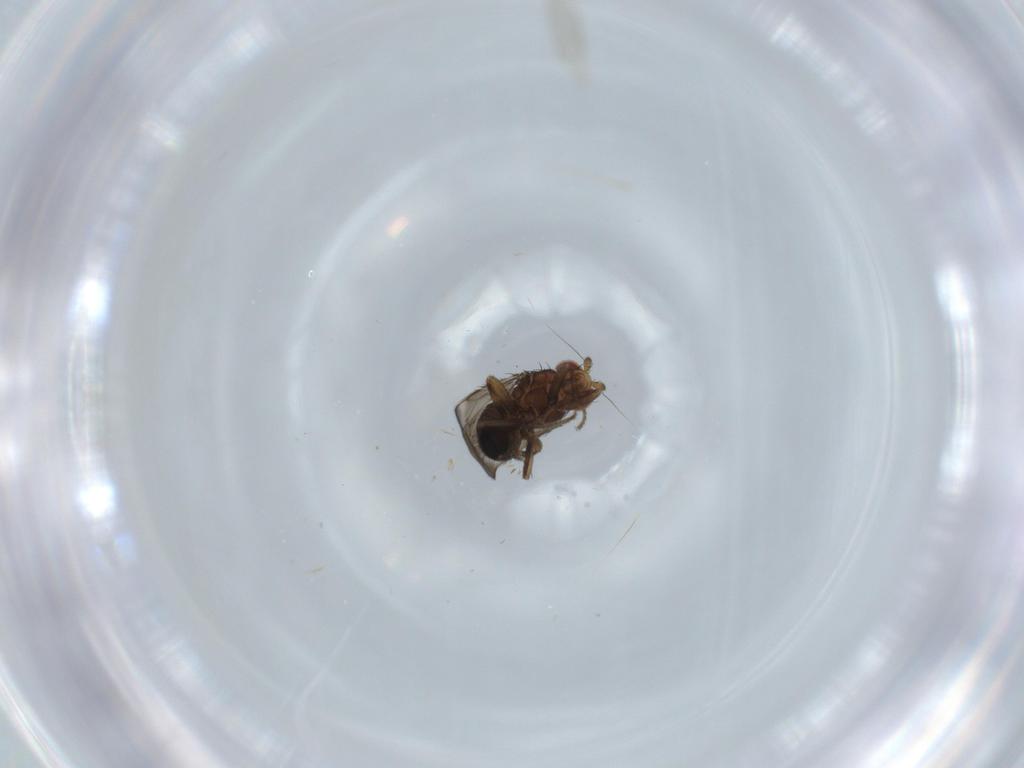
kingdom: Animalia
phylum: Arthropoda
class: Insecta
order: Diptera
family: Sphaeroceridae
